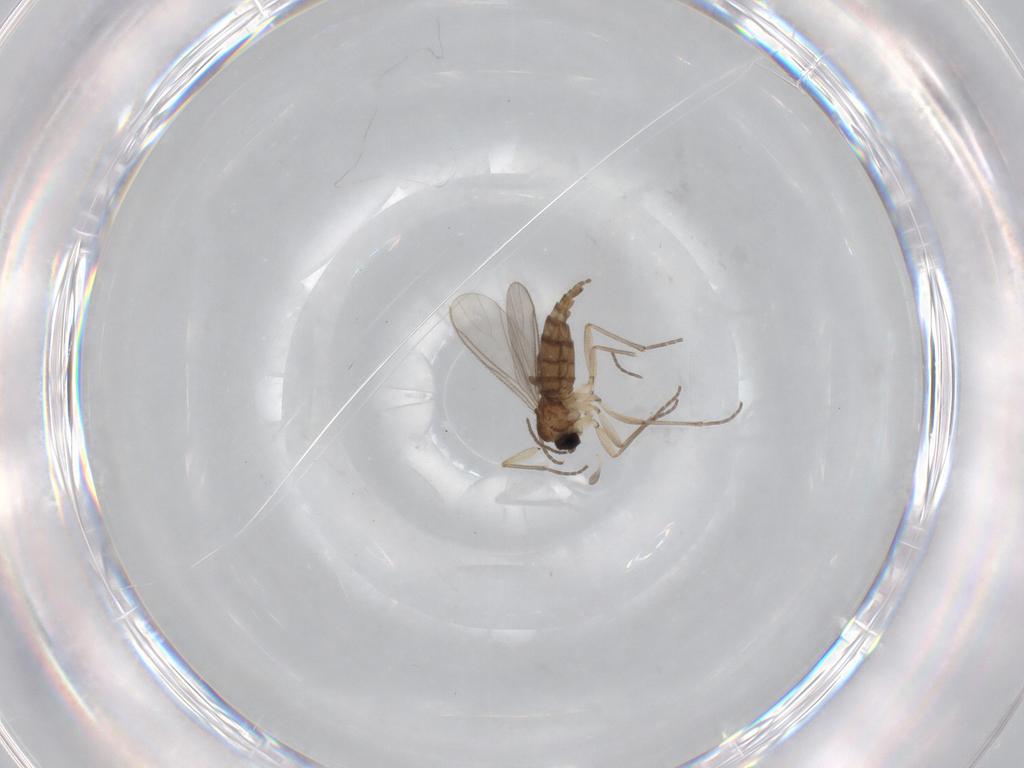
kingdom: Animalia
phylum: Arthropoda
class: Insecta
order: Diptera
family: Sciaridae
